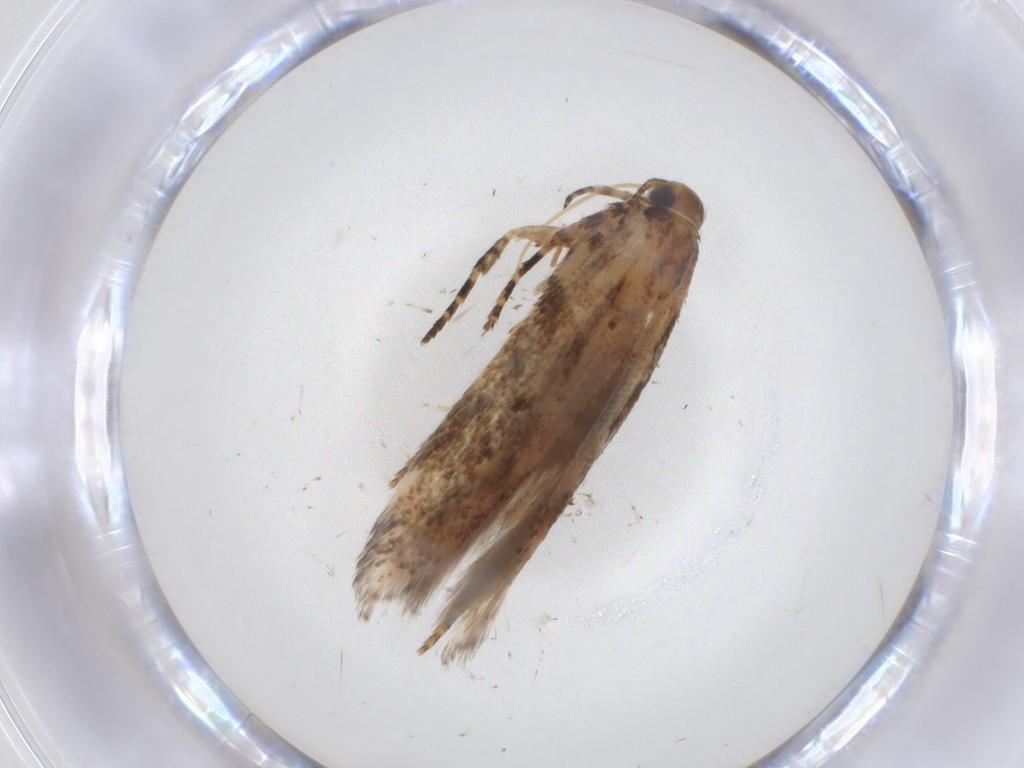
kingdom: Animalia
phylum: Arthropoda
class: Insecta
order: Lepidoptera
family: Gelechiidae
